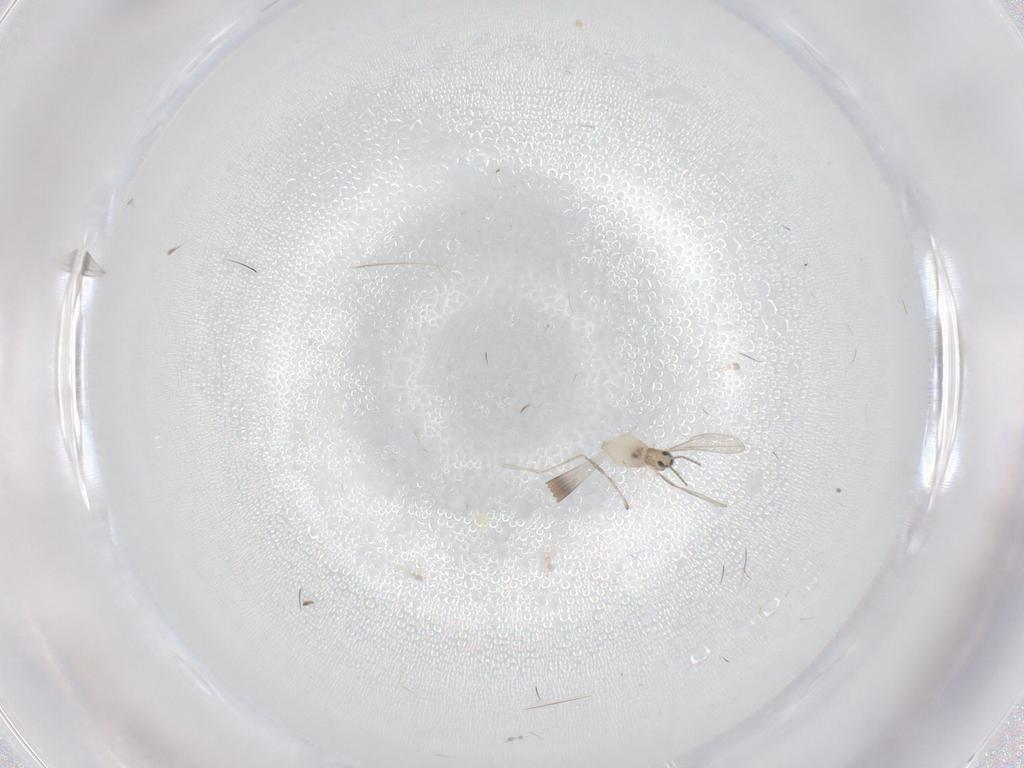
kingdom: Animalia
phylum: Arthropoda
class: Insecta
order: Diptera
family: Cecidomyiidae
